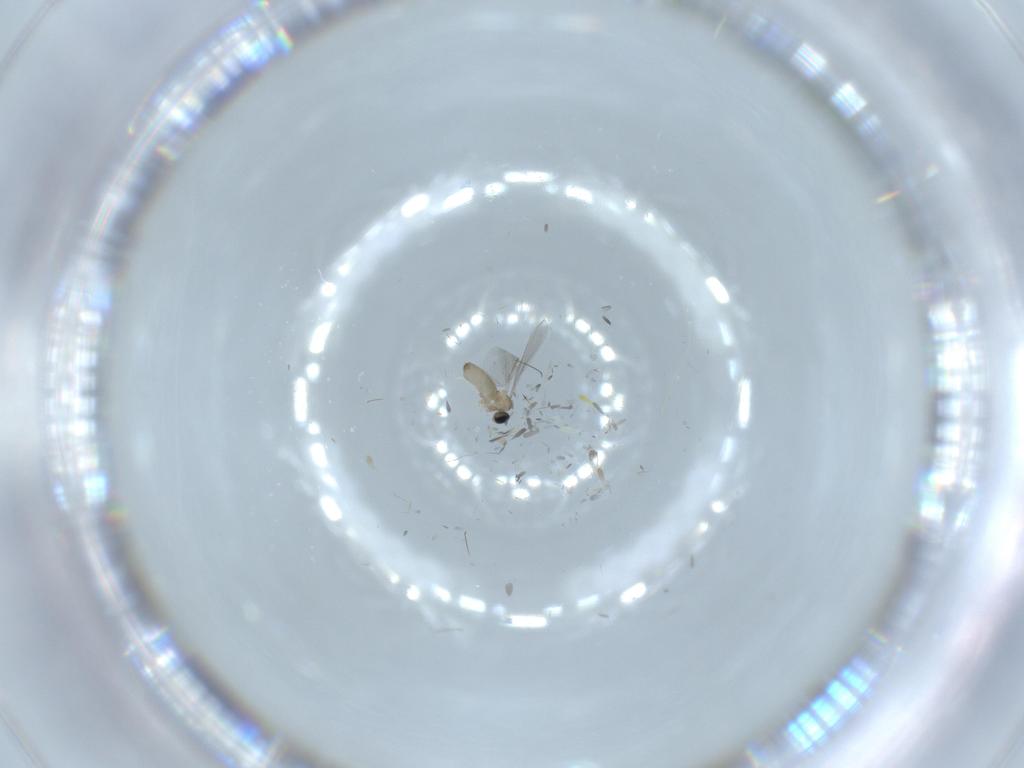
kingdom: Animalia
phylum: Arthropoda
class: Insecta
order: Diptera
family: Cecidomyiidae
